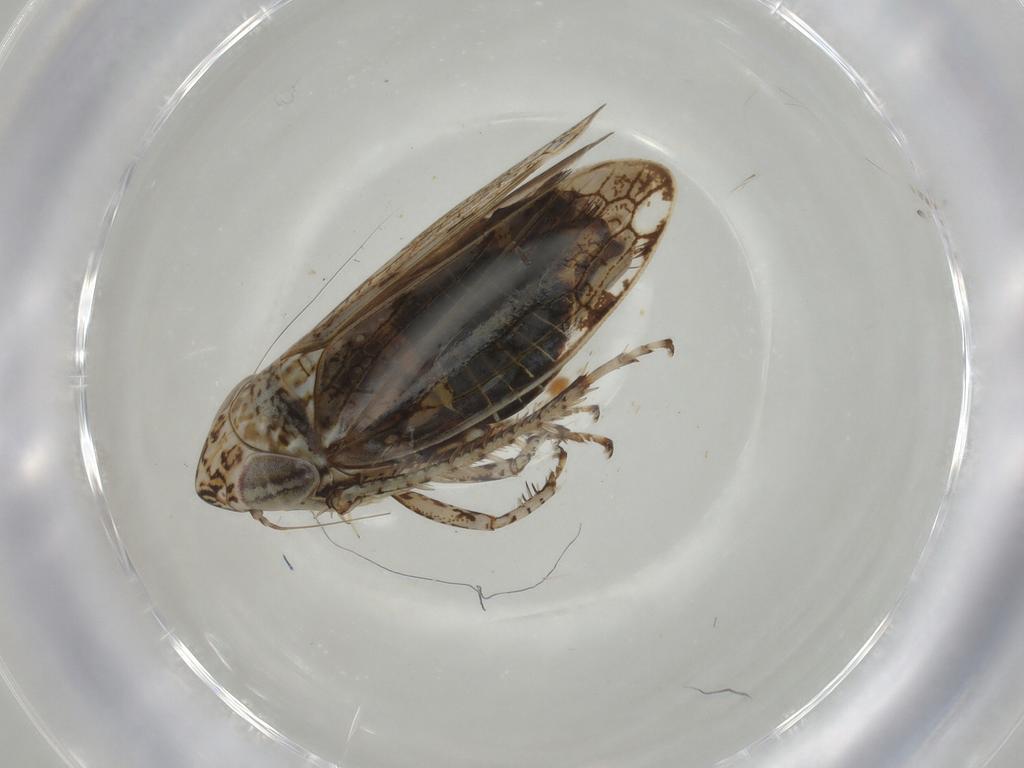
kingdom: Animalia
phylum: Arthropoda
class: Insecta
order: Hemiptera
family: Cicadellidae
